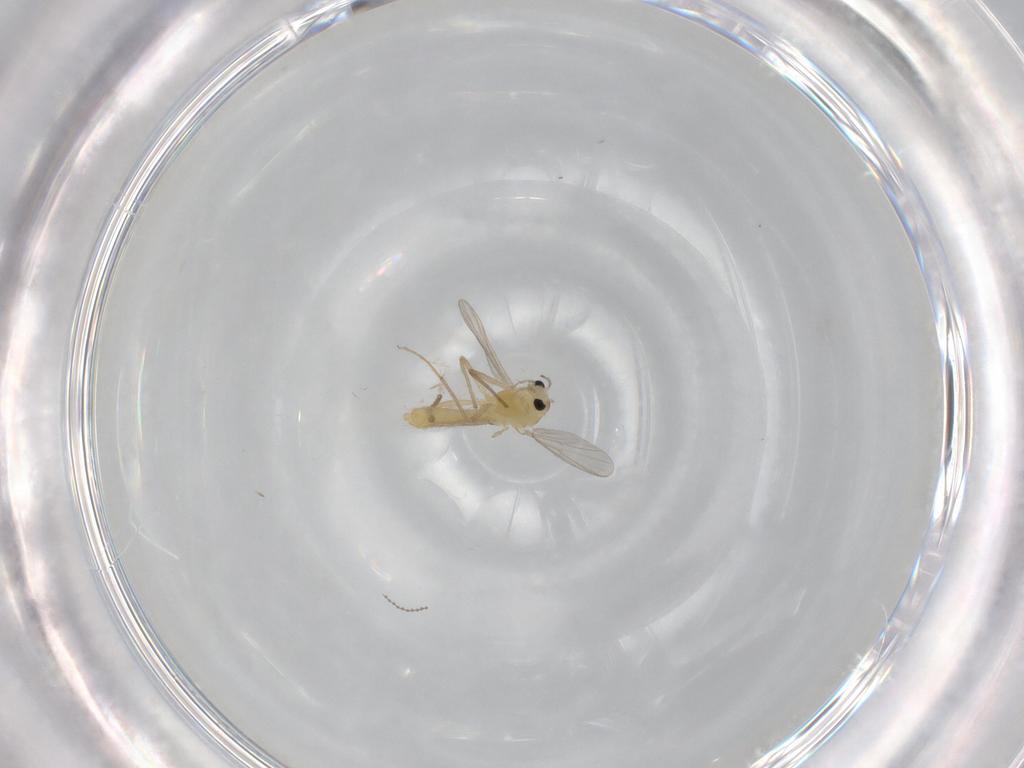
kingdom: Animalia
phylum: Arthropoda
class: Insecta
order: Diptera
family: Chironomidae
